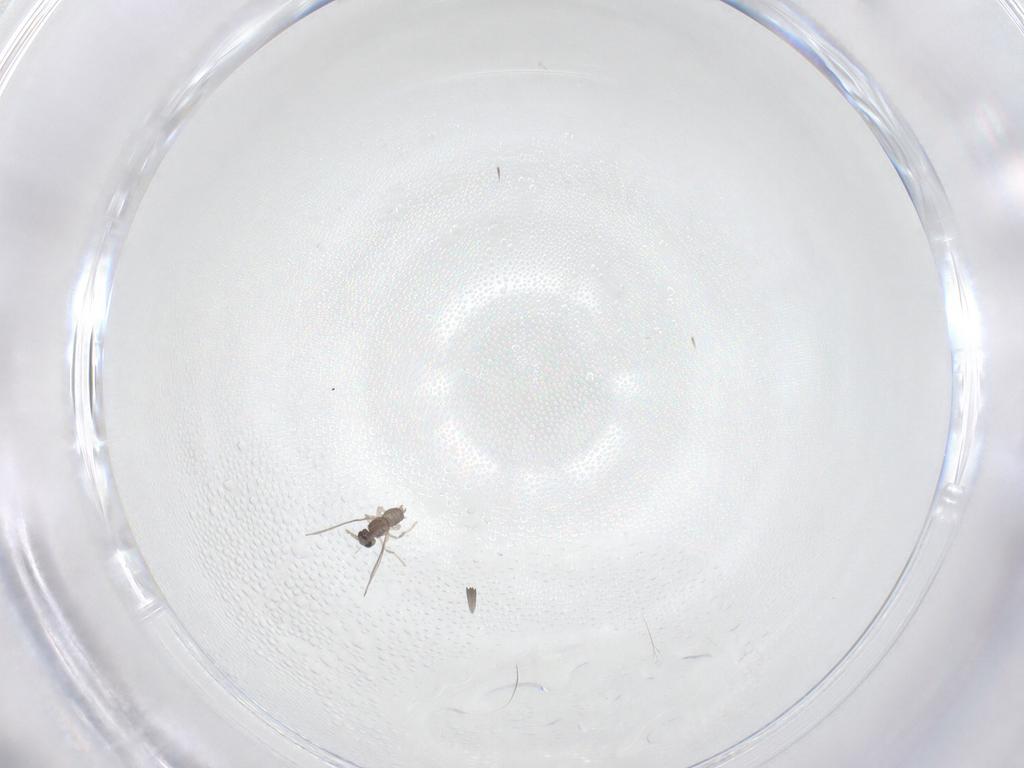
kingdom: Animalia
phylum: Arthropoda
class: Insecta
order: Diptera
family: Cecidomyiidae
